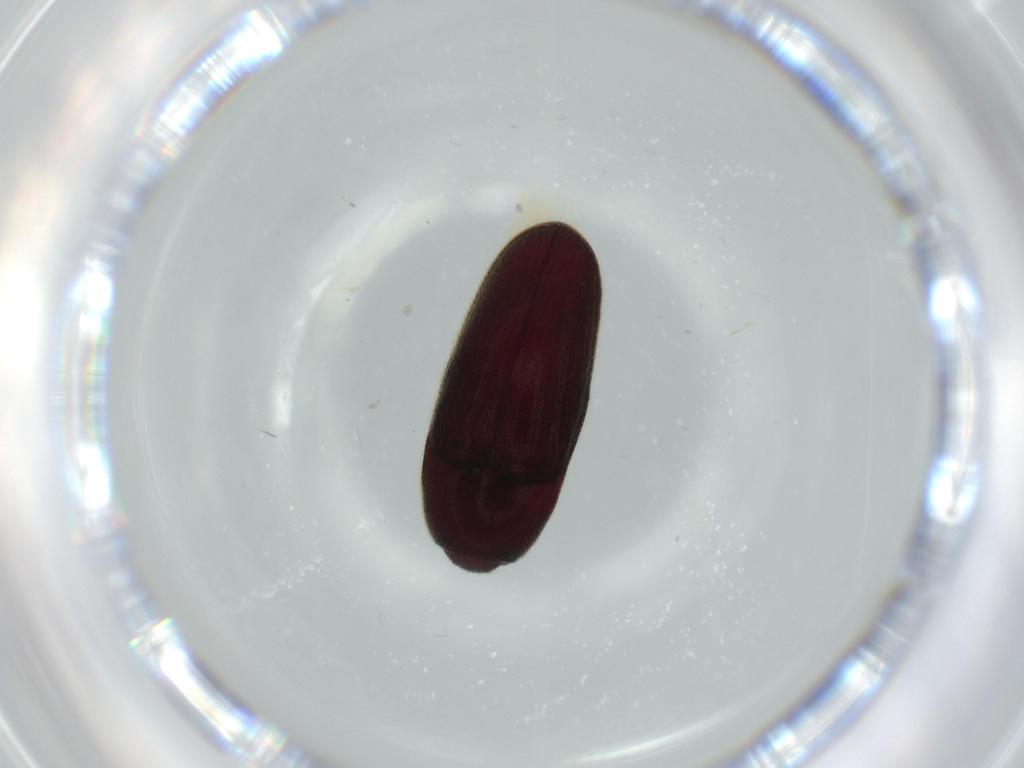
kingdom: Animalia
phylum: Arthropoda
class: Insecta
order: Coleoptera
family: Throscidae
